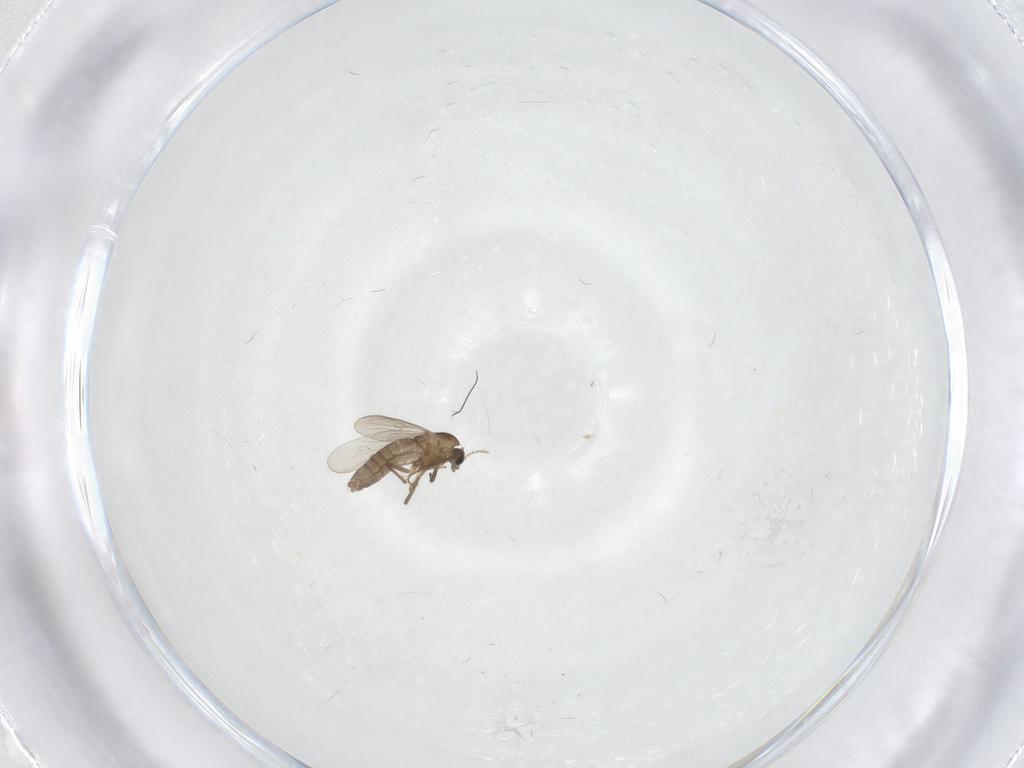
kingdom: Animalia
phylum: Arthropoda
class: Insecta
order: Diptera
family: Chironomidae
